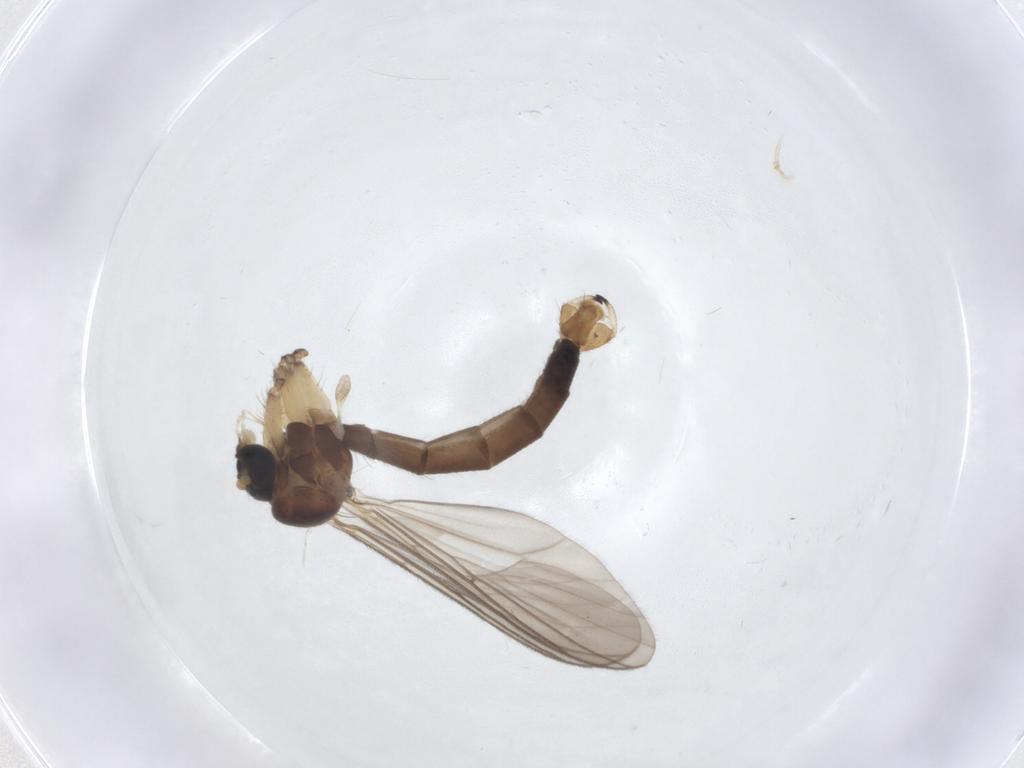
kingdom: Animalia
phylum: Arthropoda
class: Insecta
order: Diptera
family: Chironomidae
